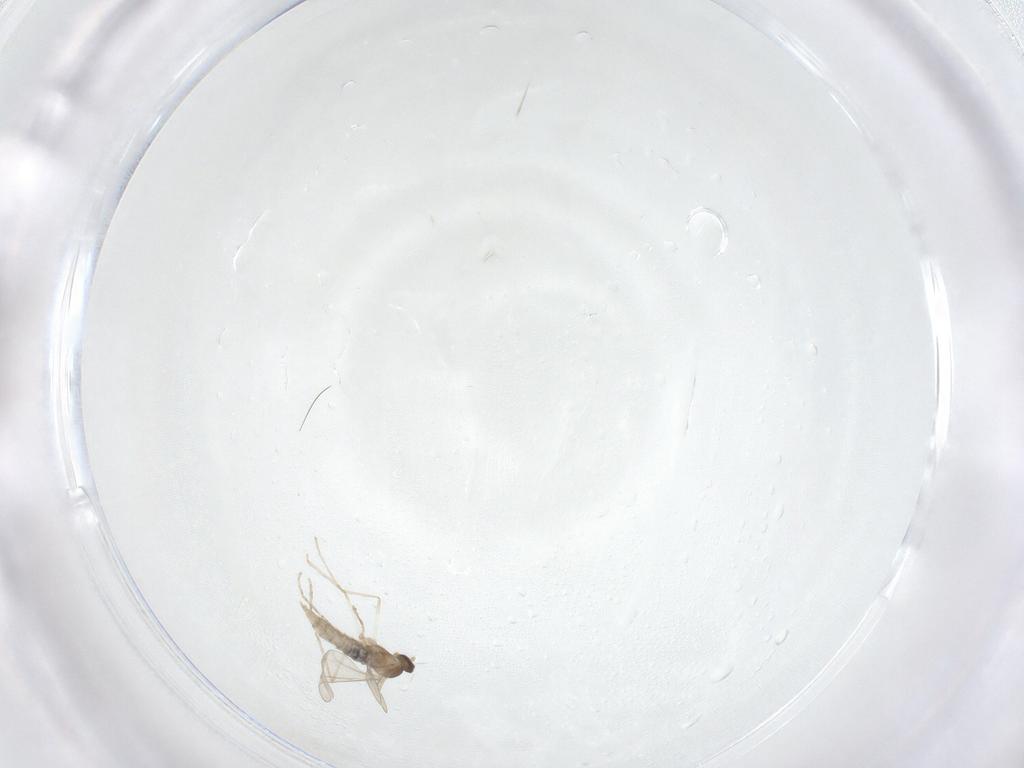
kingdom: Animalia
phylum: Arthropoda
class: Insecta
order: Diptera
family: Cecidomyiidae
